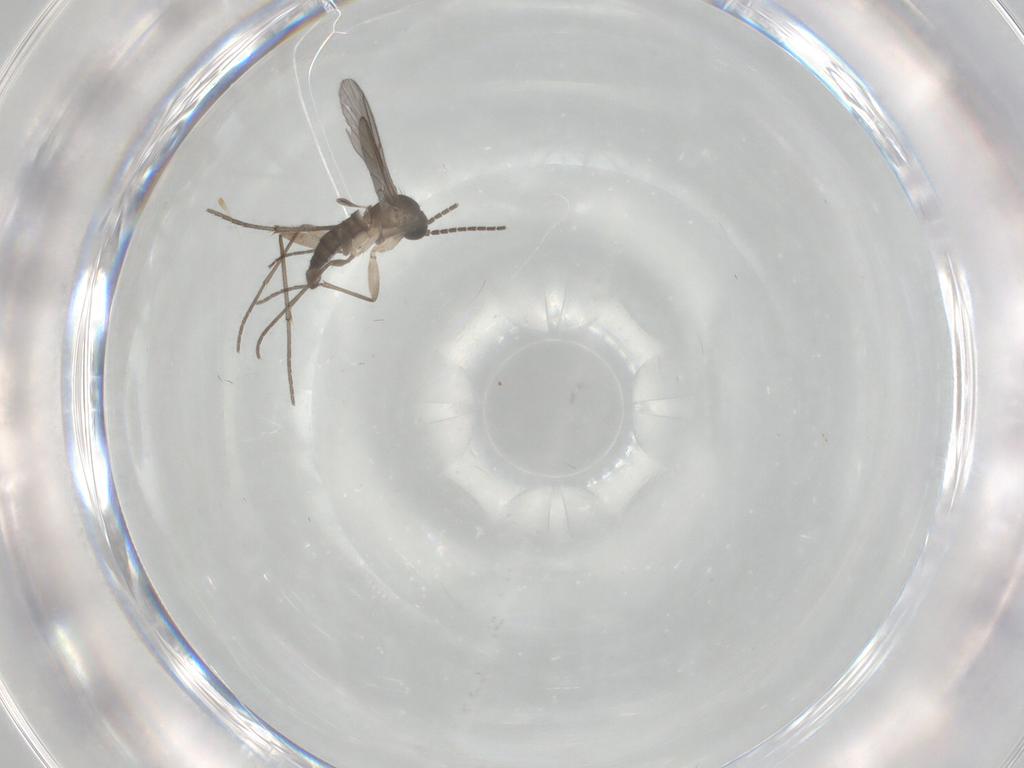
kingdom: Animalia
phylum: Arthropoda
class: Insecta
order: Diptera
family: Sciaridae
